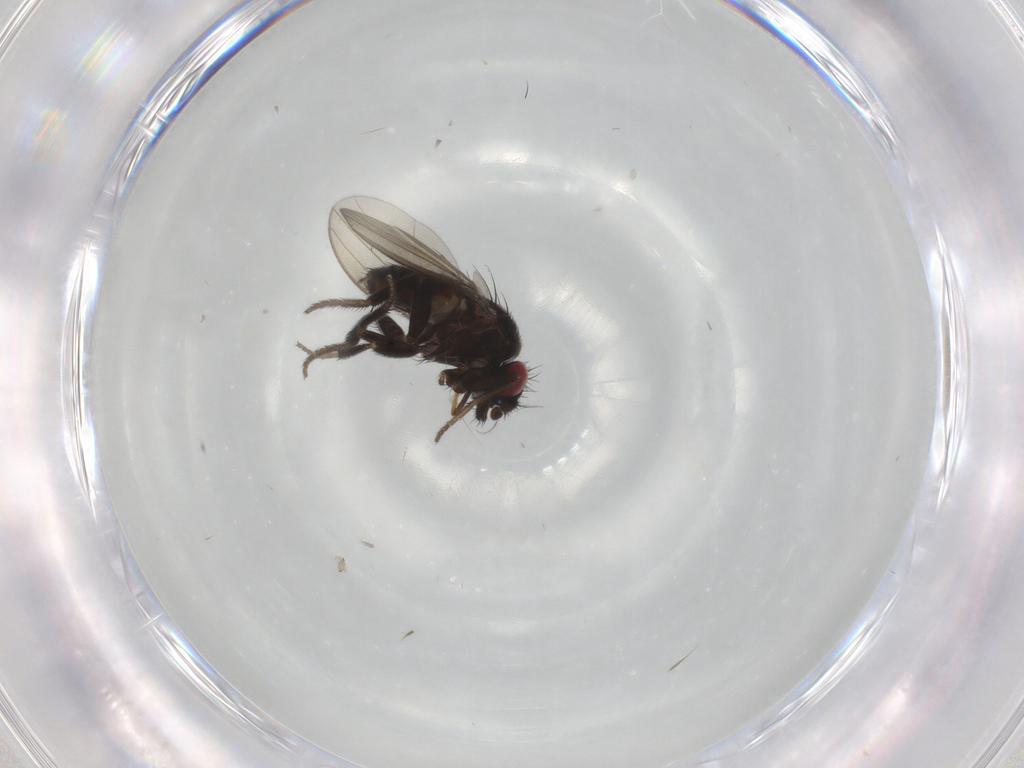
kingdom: Animalia
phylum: Arthropoda
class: Insecta
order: Diptera
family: Milichiidae
